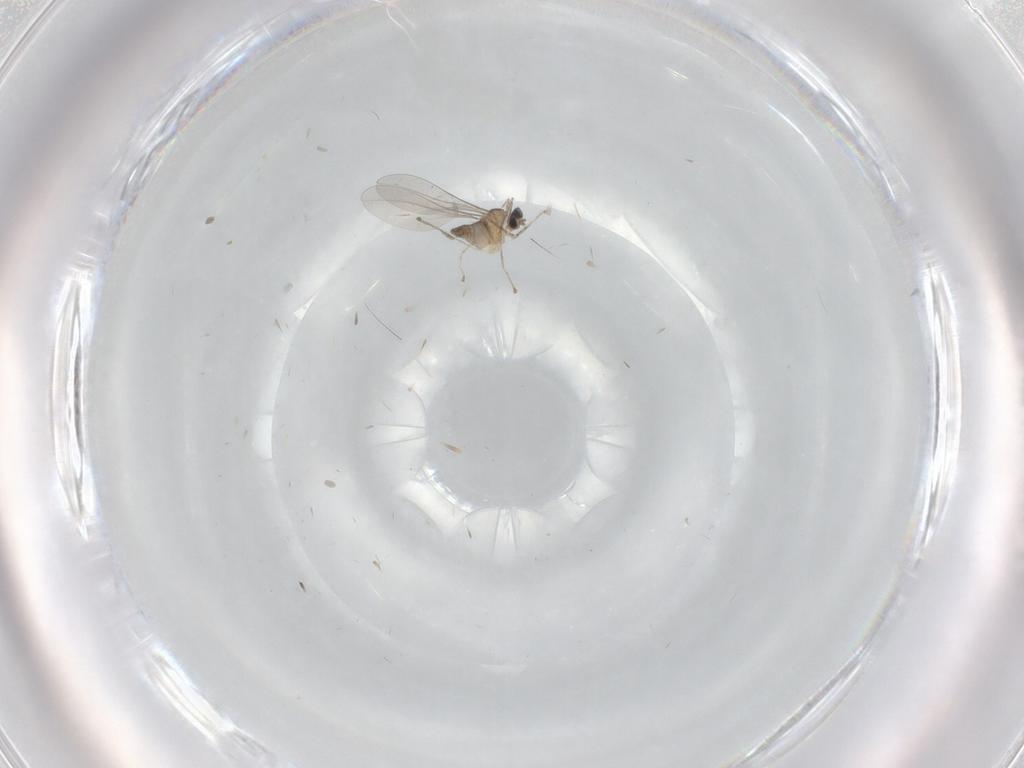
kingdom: Animalia
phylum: Arthropoda
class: Insecta
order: Diptera
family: Cecidomyiidae
